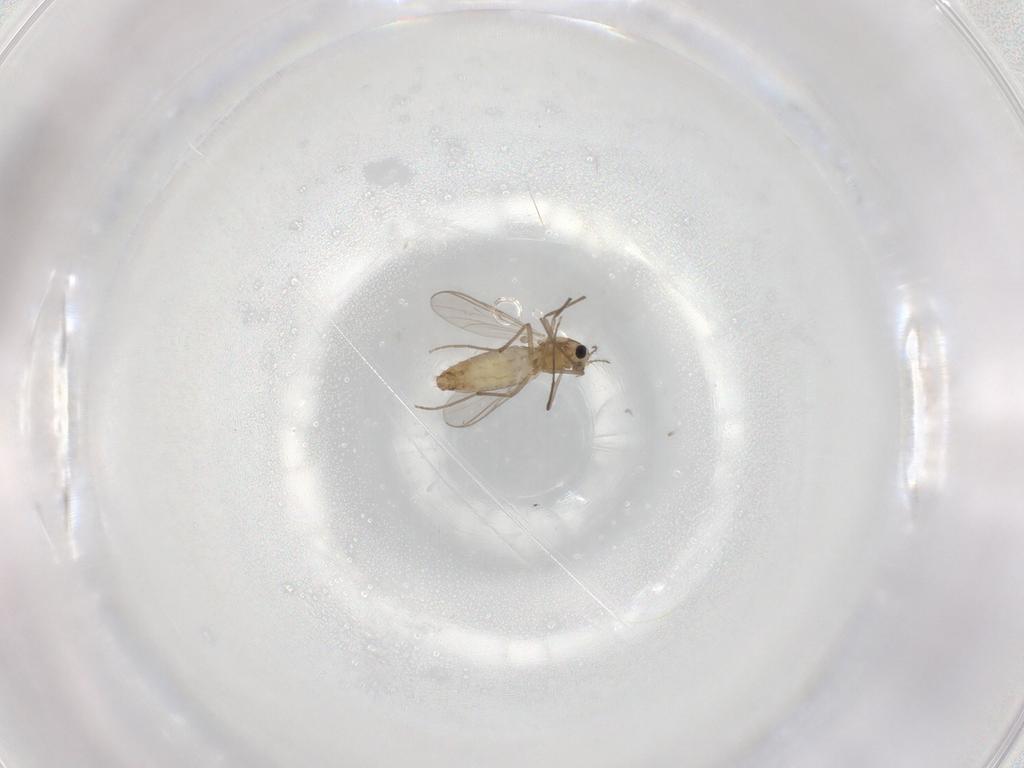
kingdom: Animalia
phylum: Arthropoda
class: Insecta
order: Diptera
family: Chironomidae
